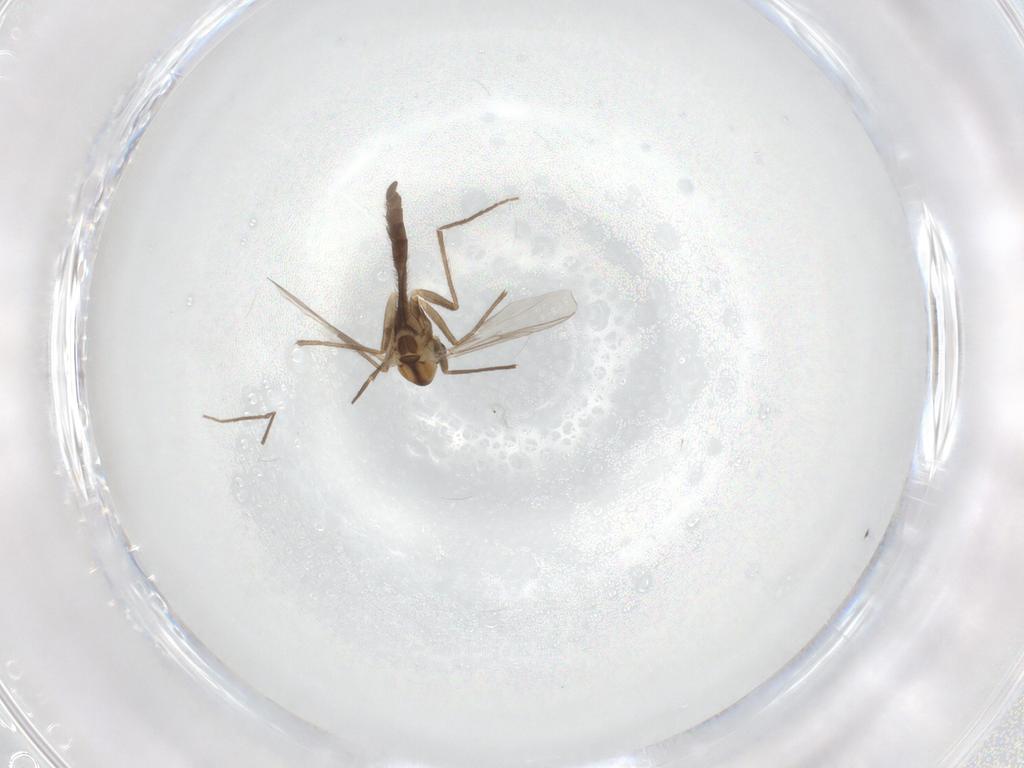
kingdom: Animalia
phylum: Arthropoda
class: Insecta
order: Diptera
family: Chironomidae
